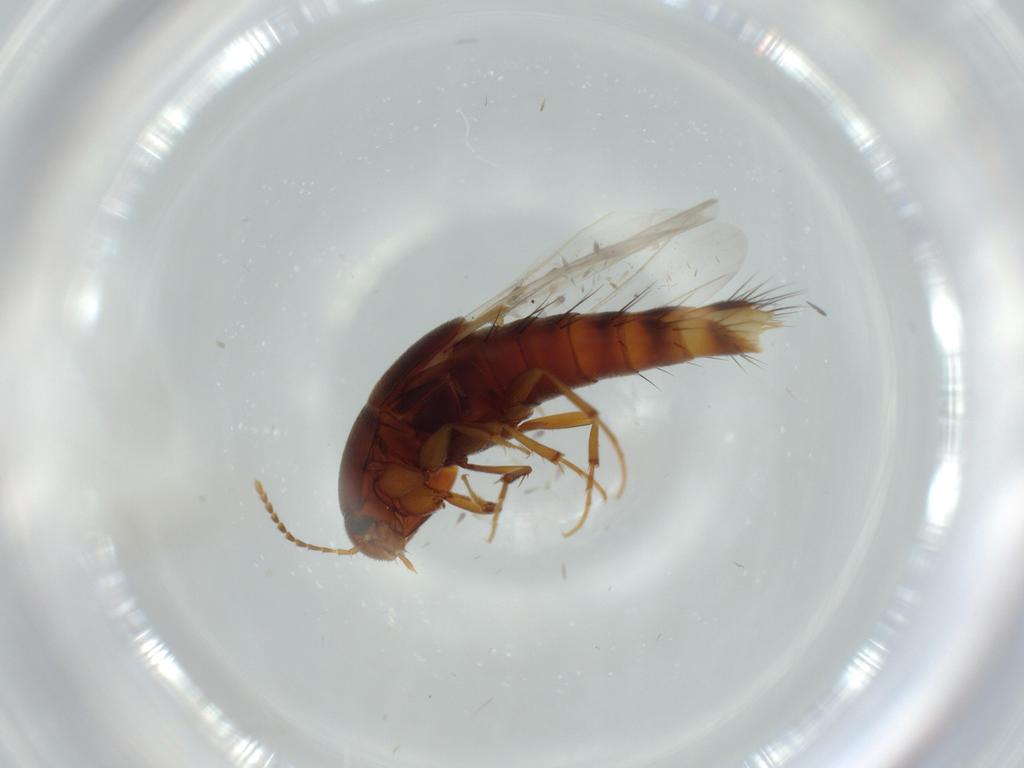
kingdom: Animalia
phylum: Arthropoda
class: Insecta
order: Coleoptera
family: Staphylinidae
